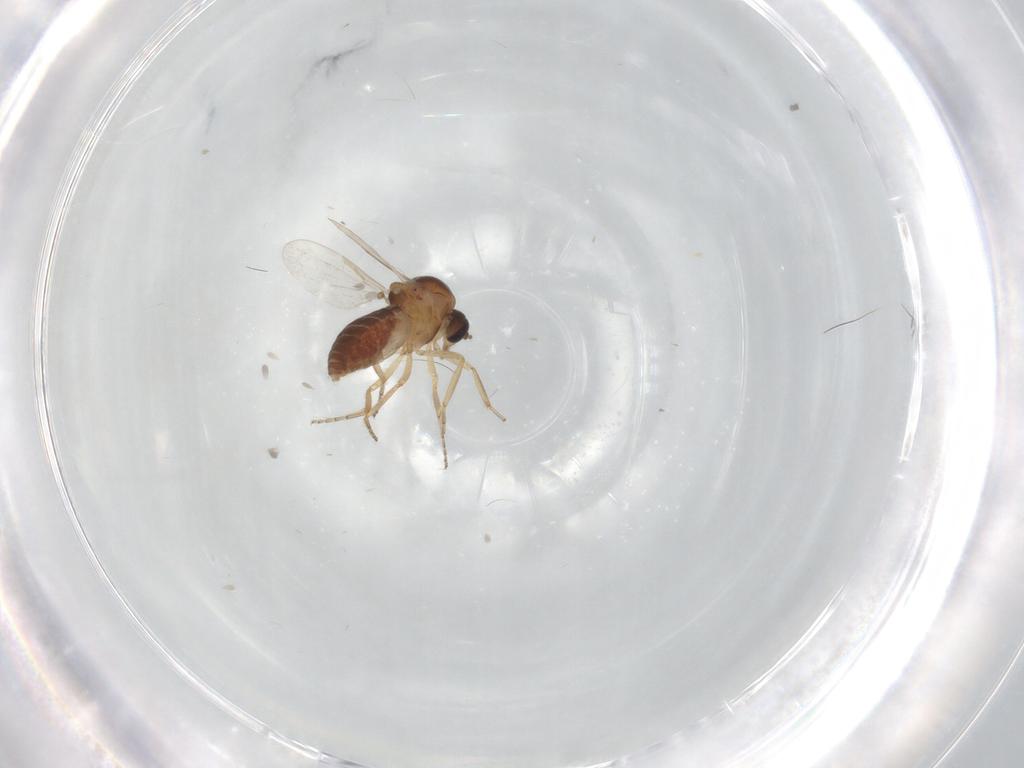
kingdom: Animalia
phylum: Arthropoda
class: Insecta
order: Diptera
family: Ceratopogonidae
